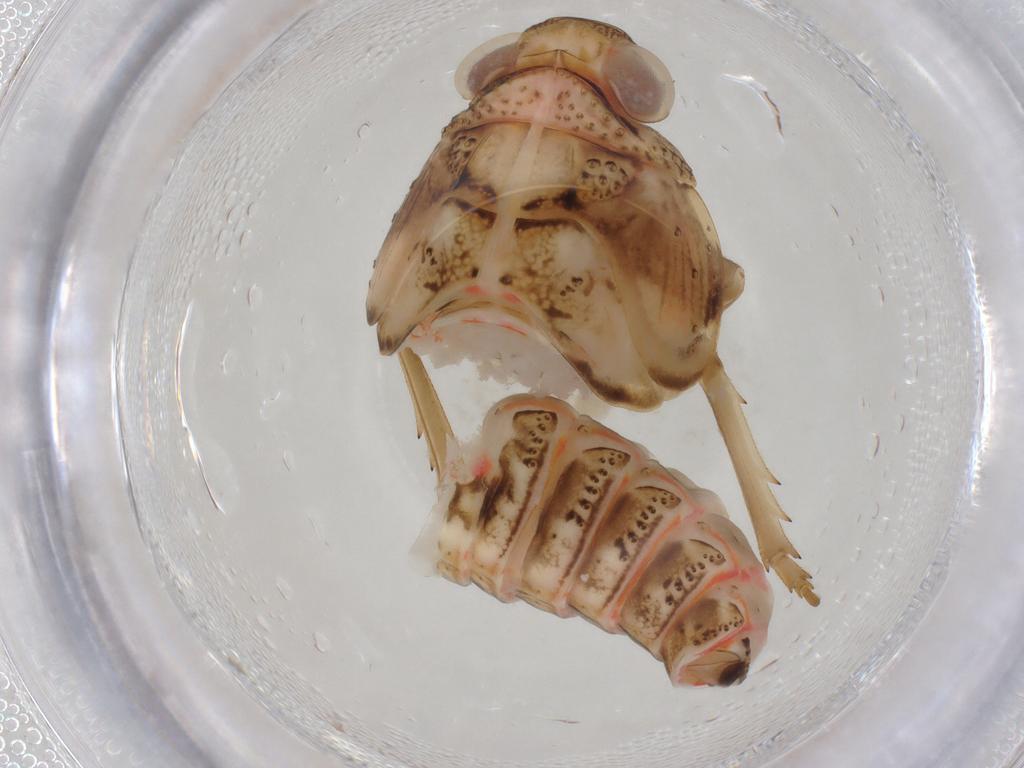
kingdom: Animalia
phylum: Arthropoda
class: Insecta
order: Hemiptera
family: Issidae
